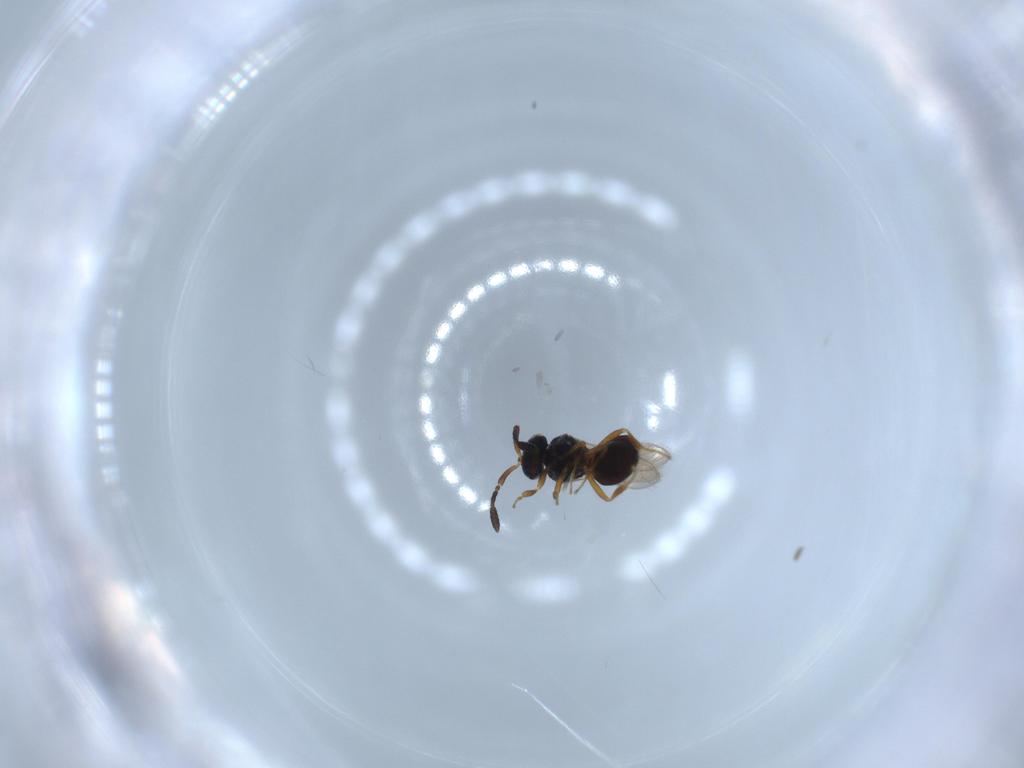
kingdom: Animalia
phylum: Arthropoda
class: Insecta
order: Hymenoptera
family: Scelionidae
